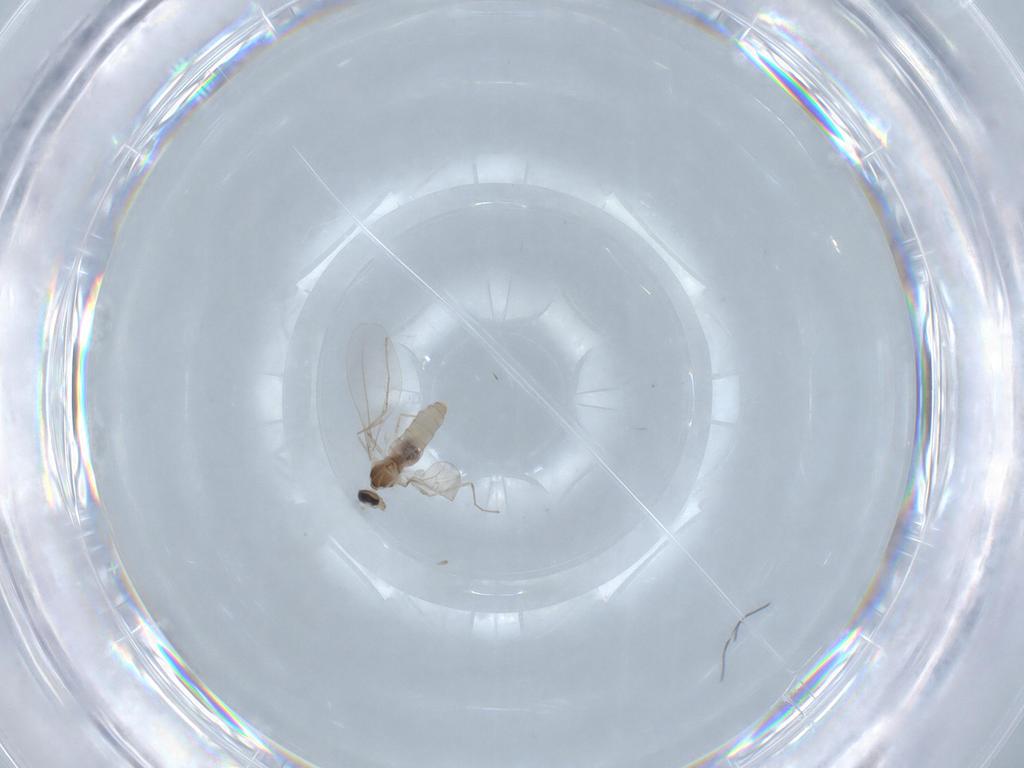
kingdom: Animalia
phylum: Arthropoda
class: Insecta
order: Diptera
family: Cecidomyiidae
